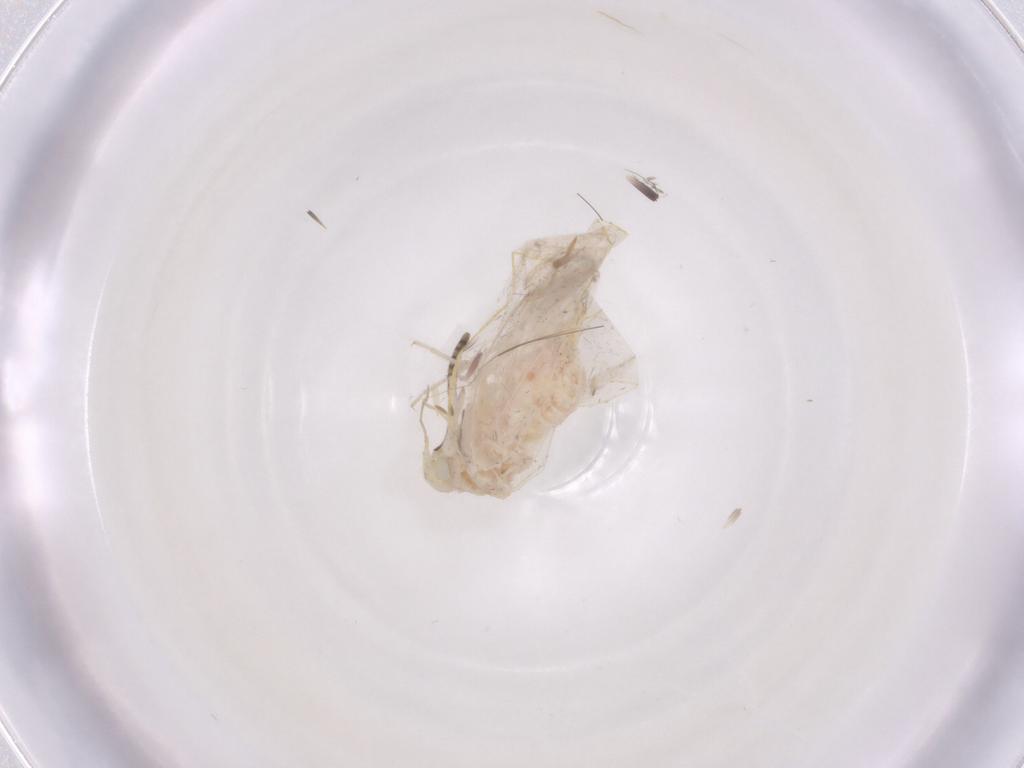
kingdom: Animalia
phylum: Arthropoda
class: Insecta
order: Hemiptera
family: Aleyrodidae
